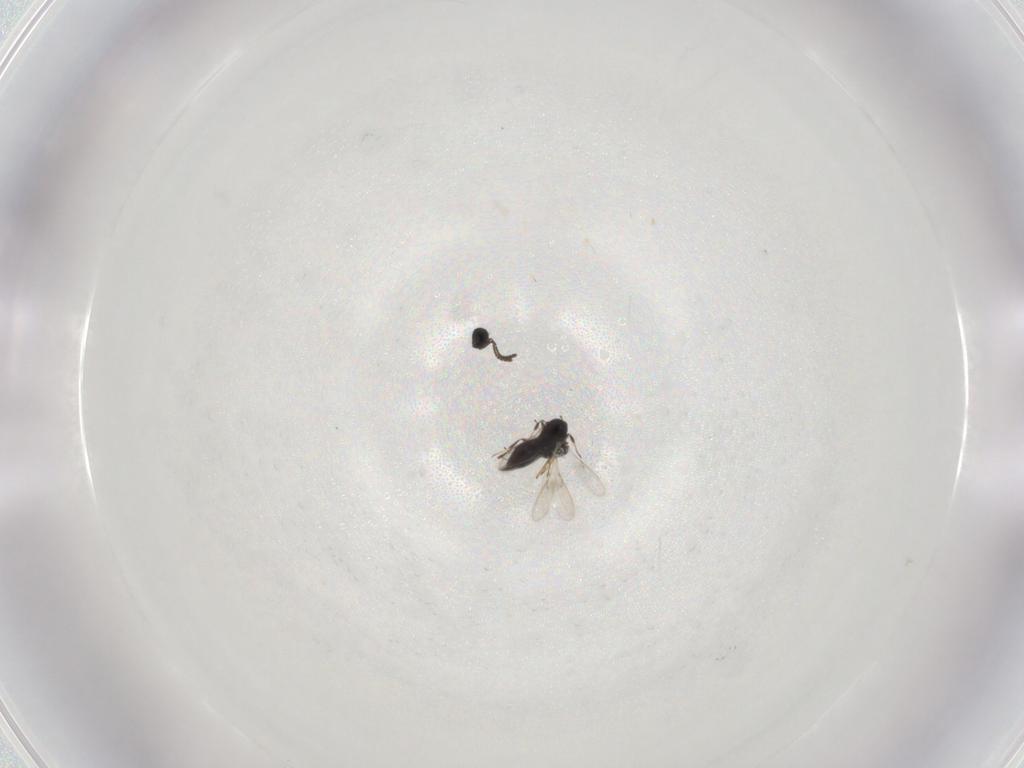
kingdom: Animalia
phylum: Arthropoda
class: Insecta
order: Hymenoptera
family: Scelionidae
